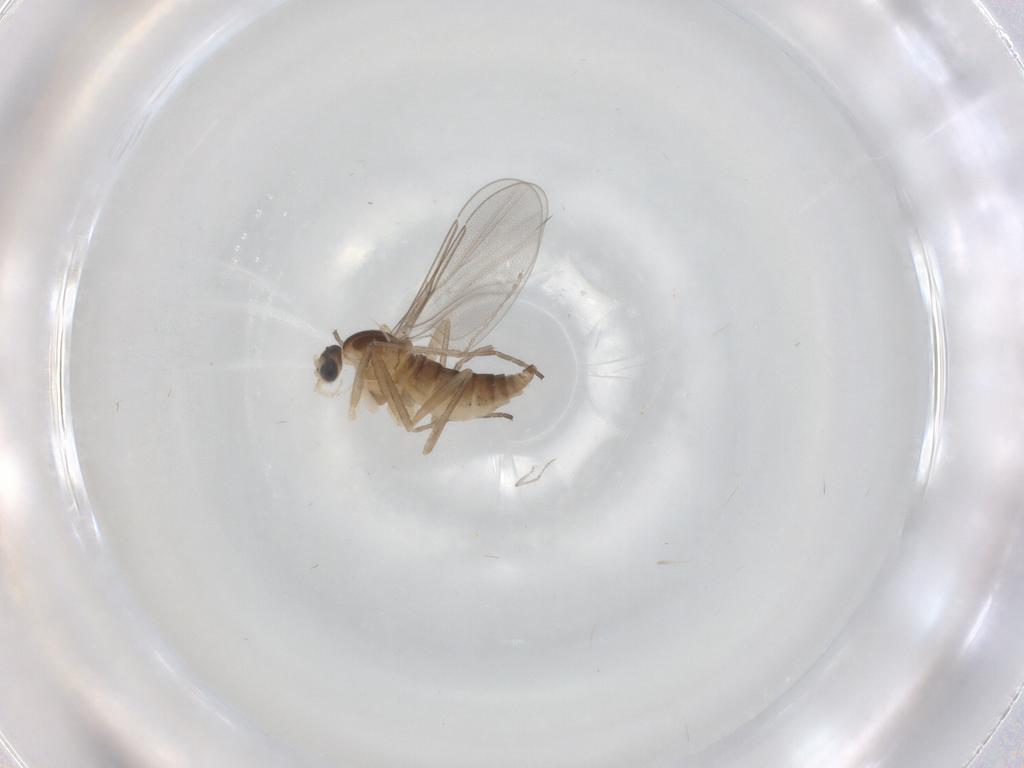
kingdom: Animalia
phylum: Arthropoda
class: Insecta
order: Diptera
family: Cecidomyiidae
